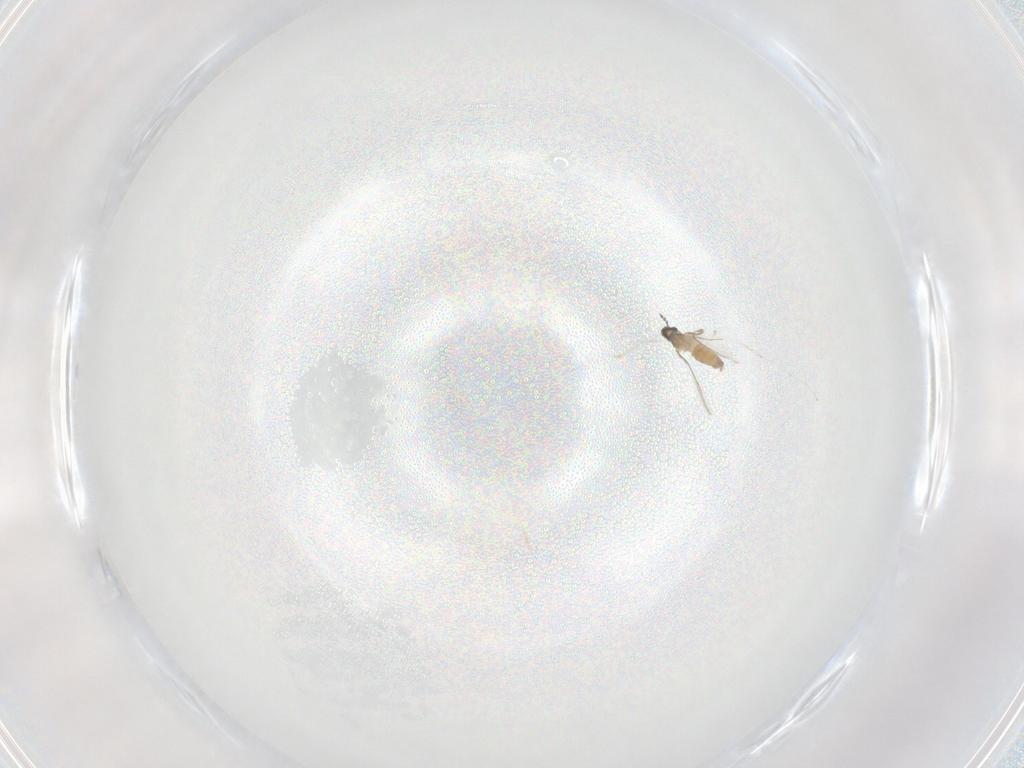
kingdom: Animalia
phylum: Arthropoda
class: Insecta
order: Diptera
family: Cecidomyiidae
